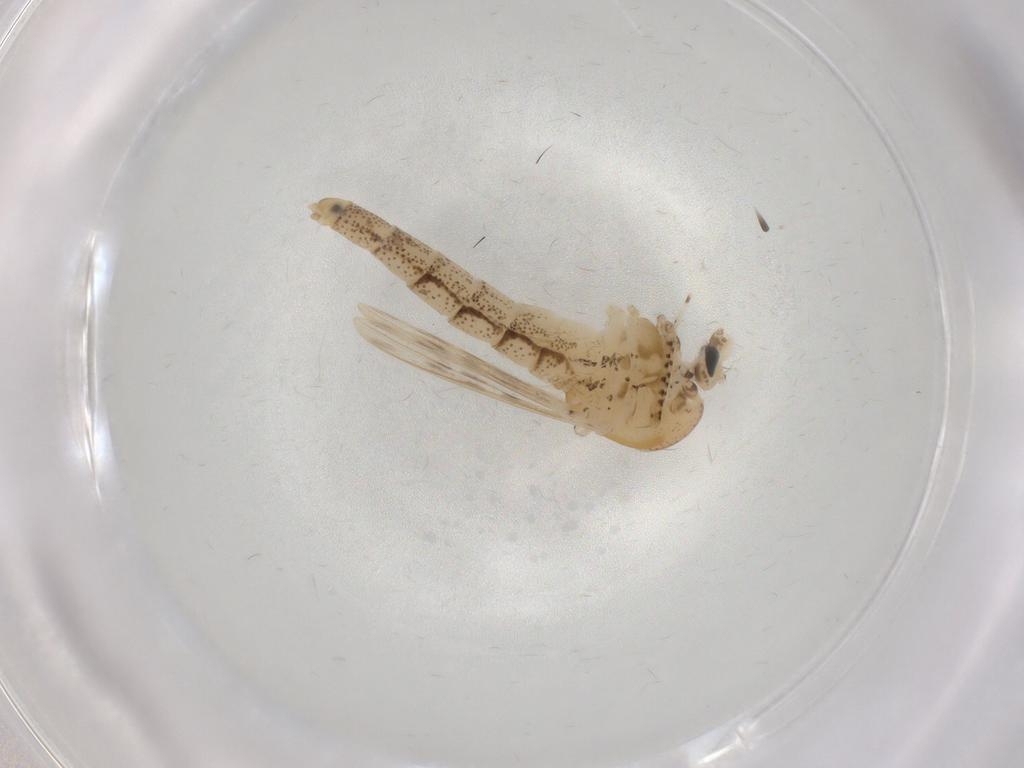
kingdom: Animalia
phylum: Arthropoda
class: Insecta
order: Diptera
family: Chaoboridae
